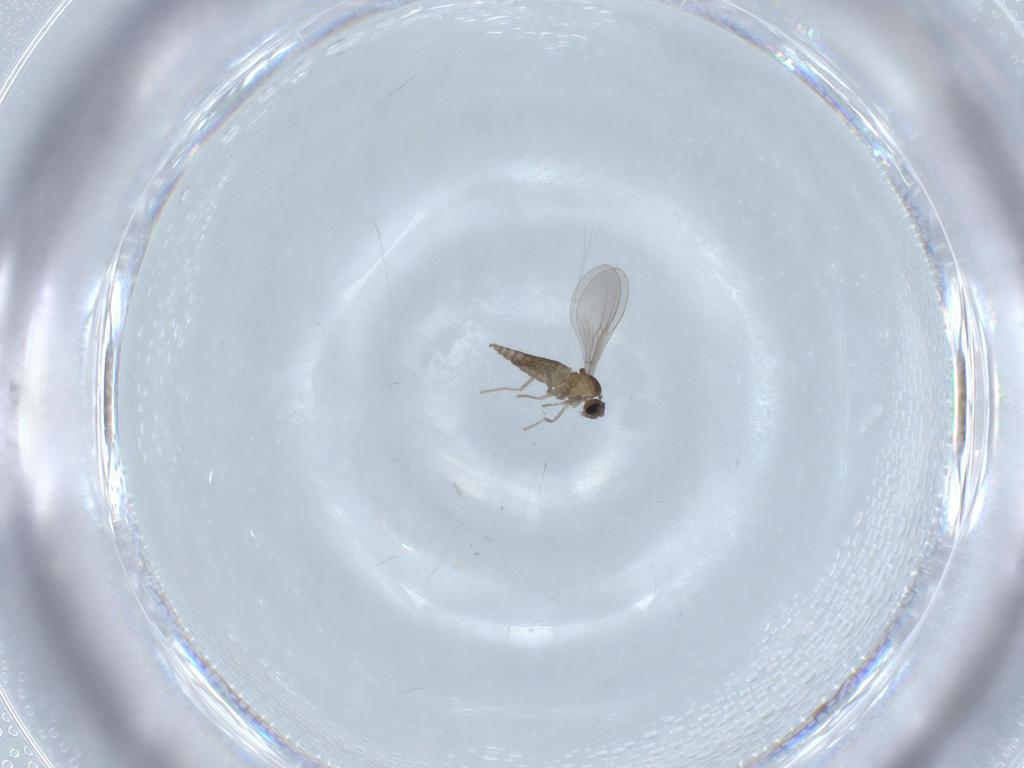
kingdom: Animalia
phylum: Arthropoda
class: Insecta
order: Diptera
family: Cecidomyiidae
